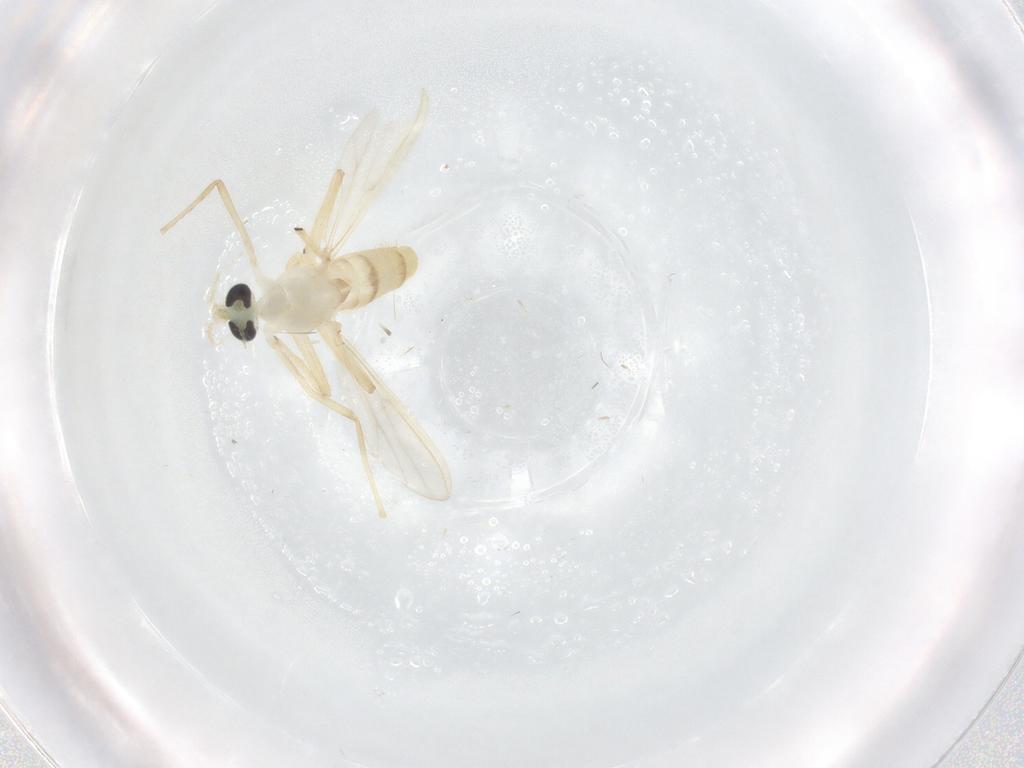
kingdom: Animalia
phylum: Arthropoda
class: Insecta
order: Diptera
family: Chironomidae
